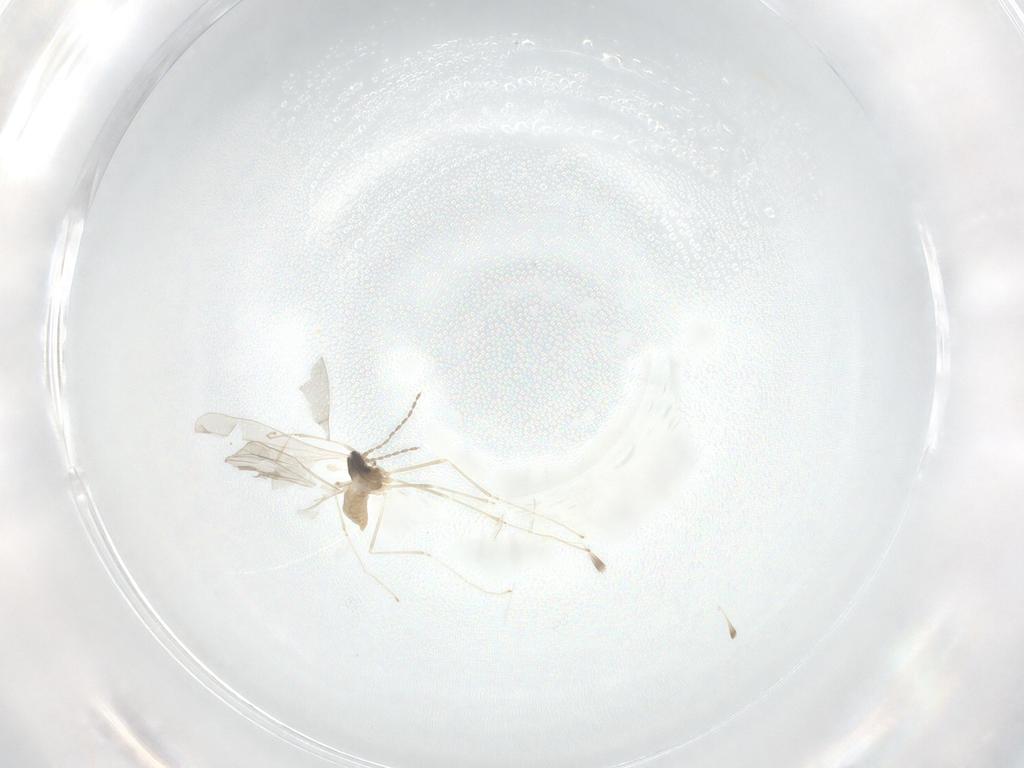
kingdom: Animalia
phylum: Arthropoda
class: Insecta
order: Diptera
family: Cecidomyiidae
